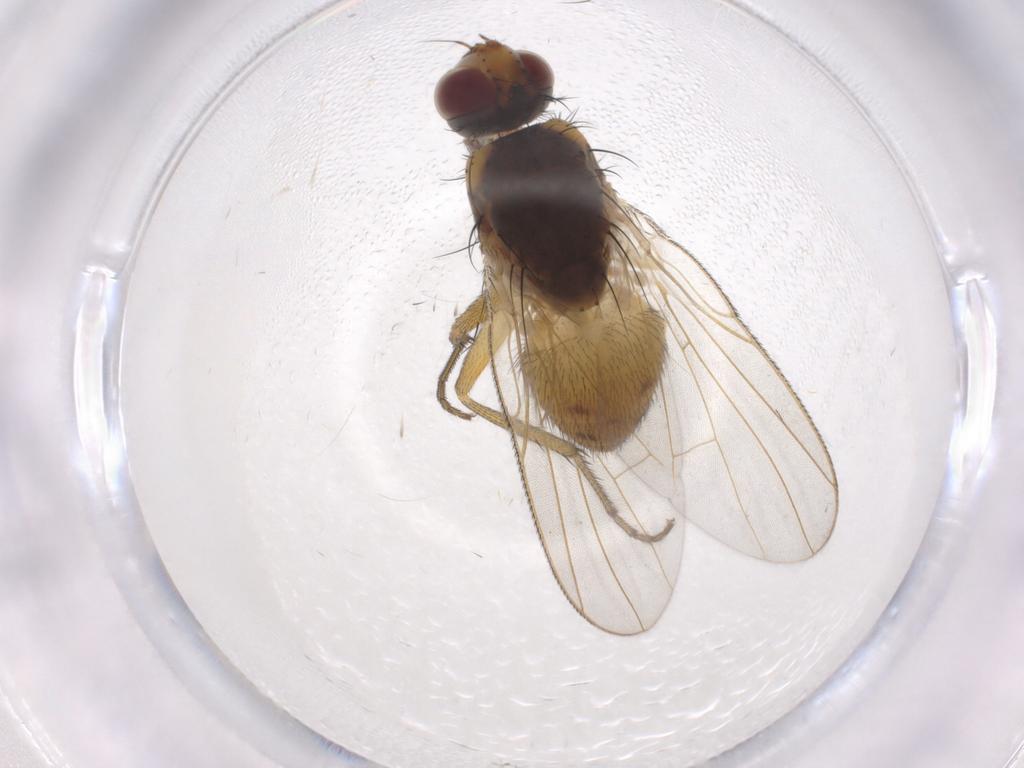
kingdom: Animalia
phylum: Arthropoda
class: Insecta
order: Diptera
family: Muscidae
